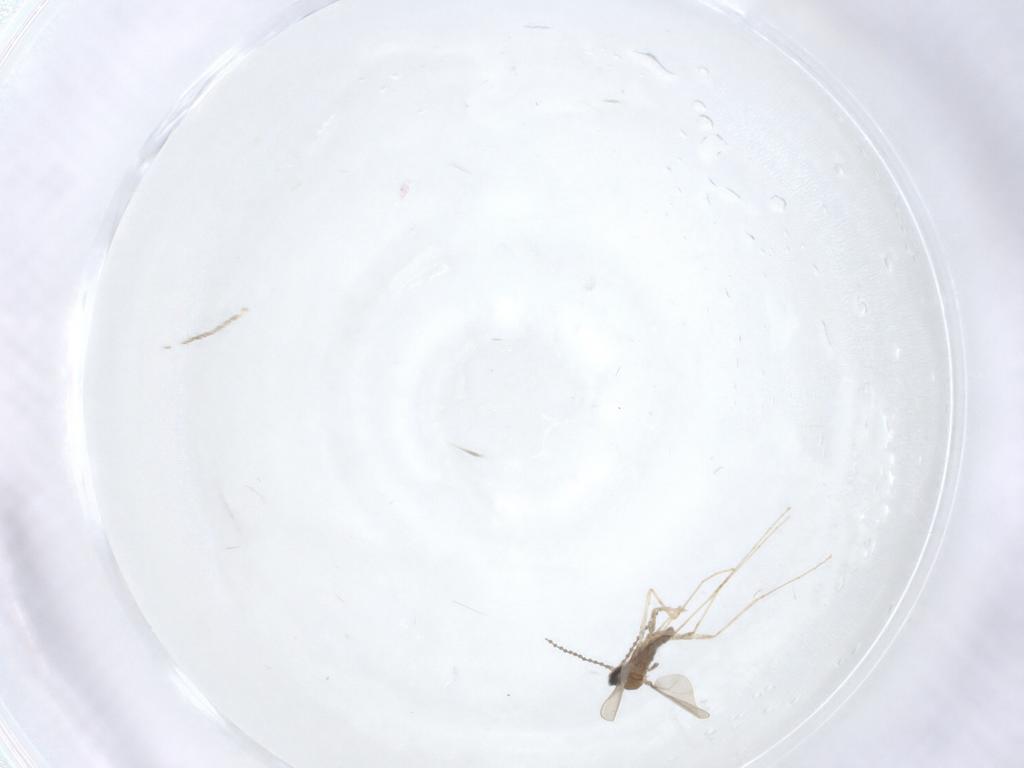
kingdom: Animalia
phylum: Arthropoda
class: Insecta
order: Diptera
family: Cecidomyiidae
